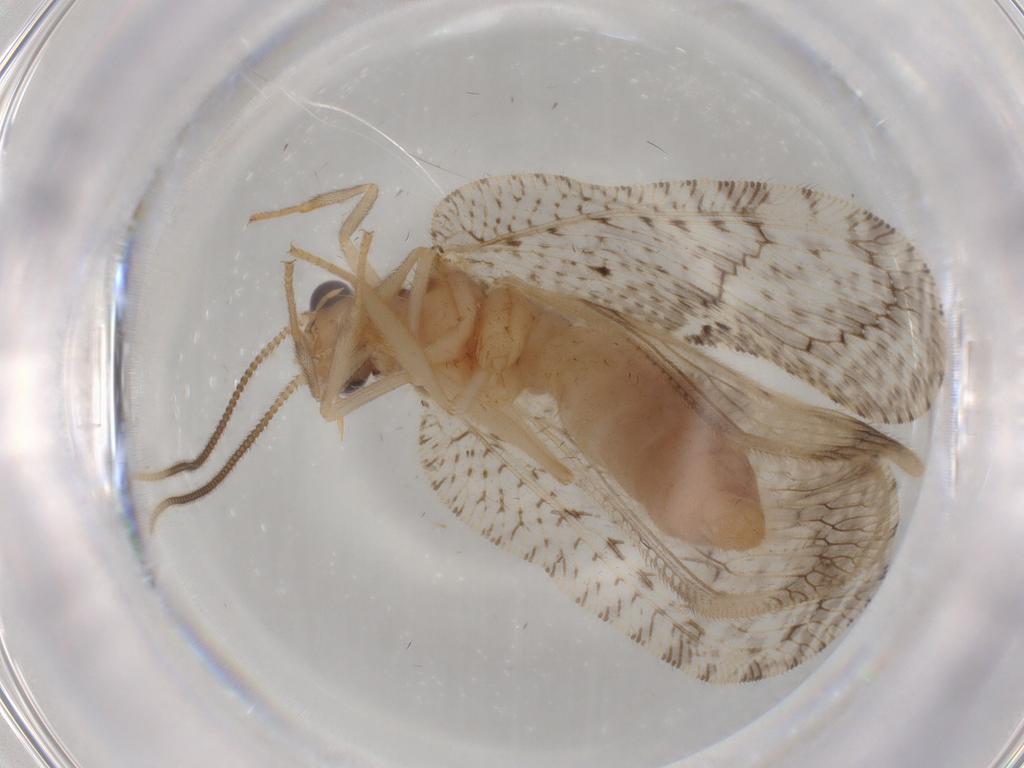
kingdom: Animalia
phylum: Arthropoda
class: Insecta
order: Neuroptera
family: Hemerobiidae
